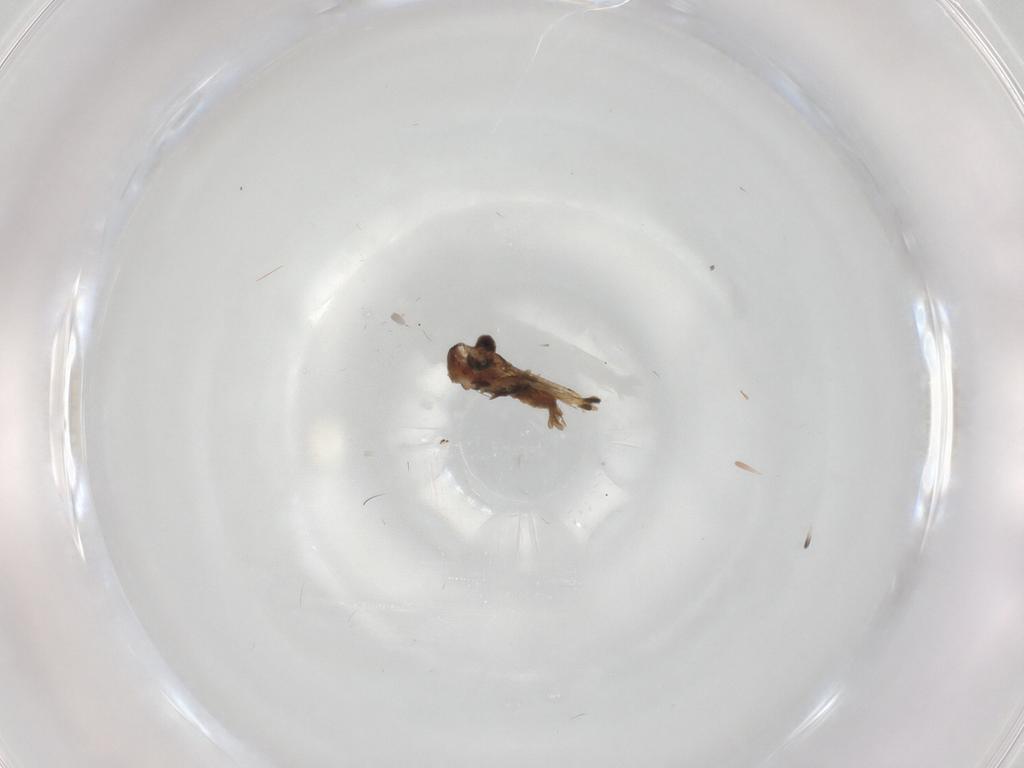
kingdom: Animalia
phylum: Arthropoda
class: Insecta
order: Diptera
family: Cecidomyiidae
